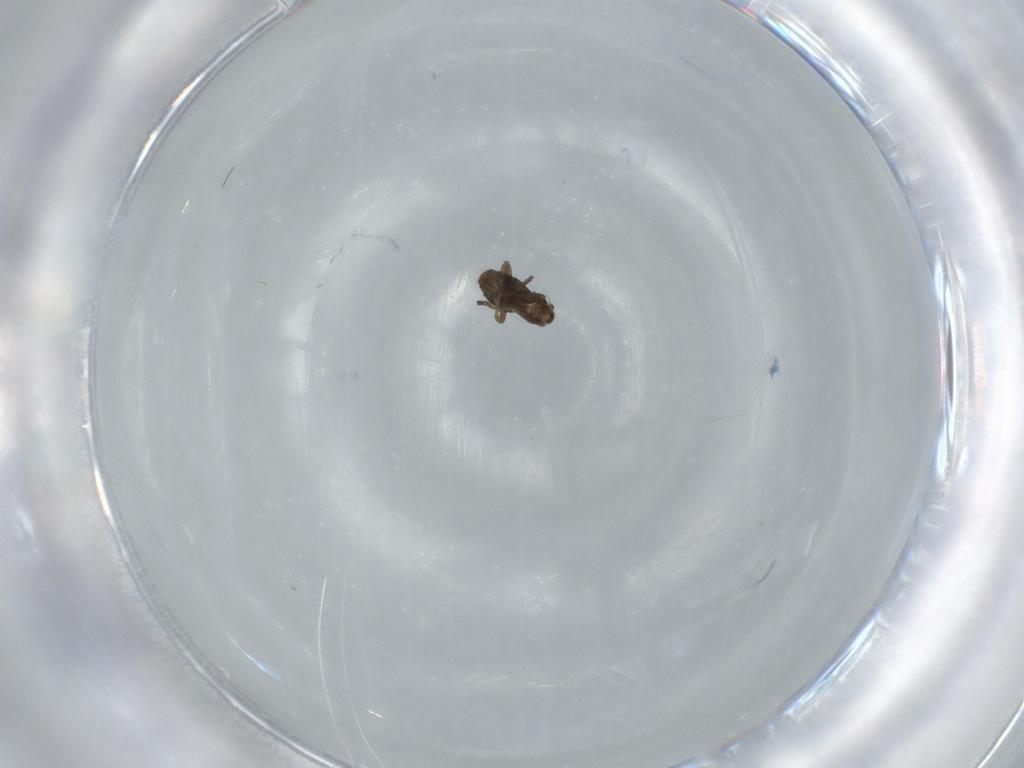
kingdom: Animalia
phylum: Arthropoda
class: Insecta
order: Diptera
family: Phoridae
